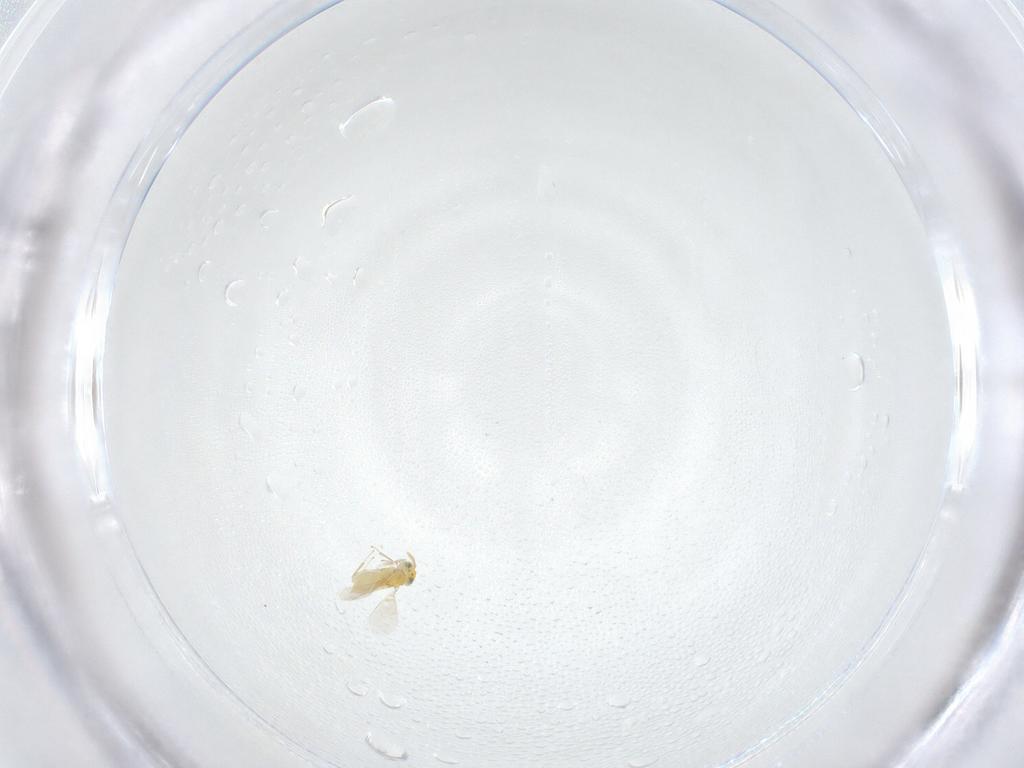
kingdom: Animalia
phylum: Arthropoda
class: Insecta
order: Hymenoptera
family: Aphelinidae
